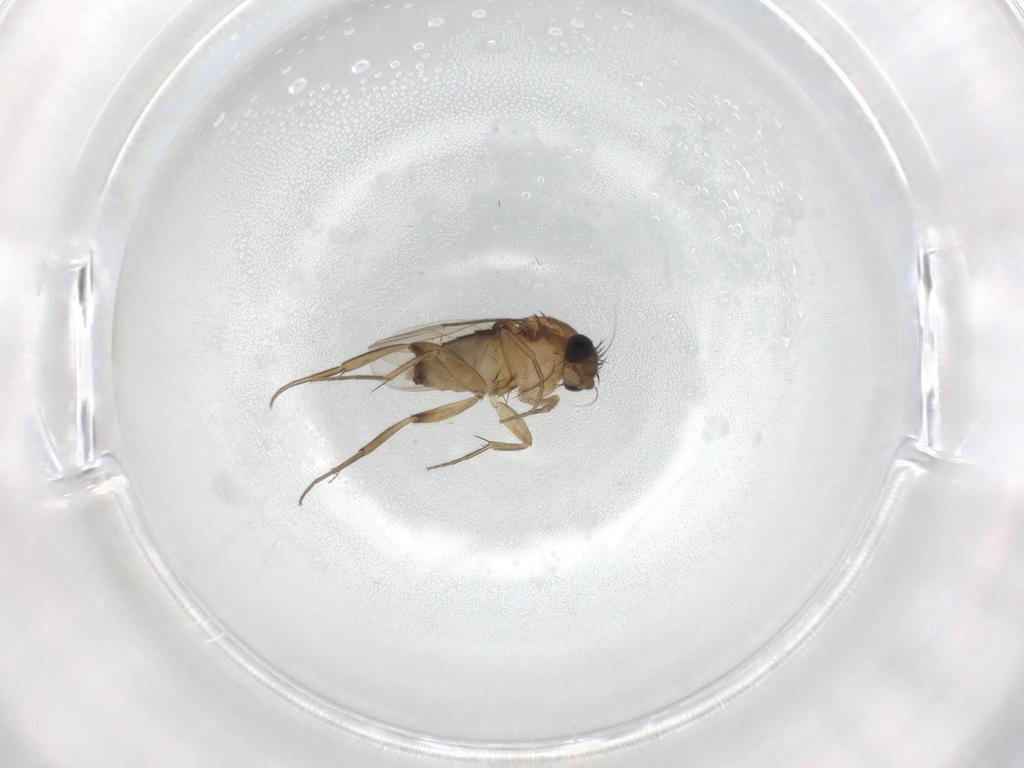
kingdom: Animalia
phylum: Arthropoda
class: Insecta
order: Diptera
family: Phoridae
